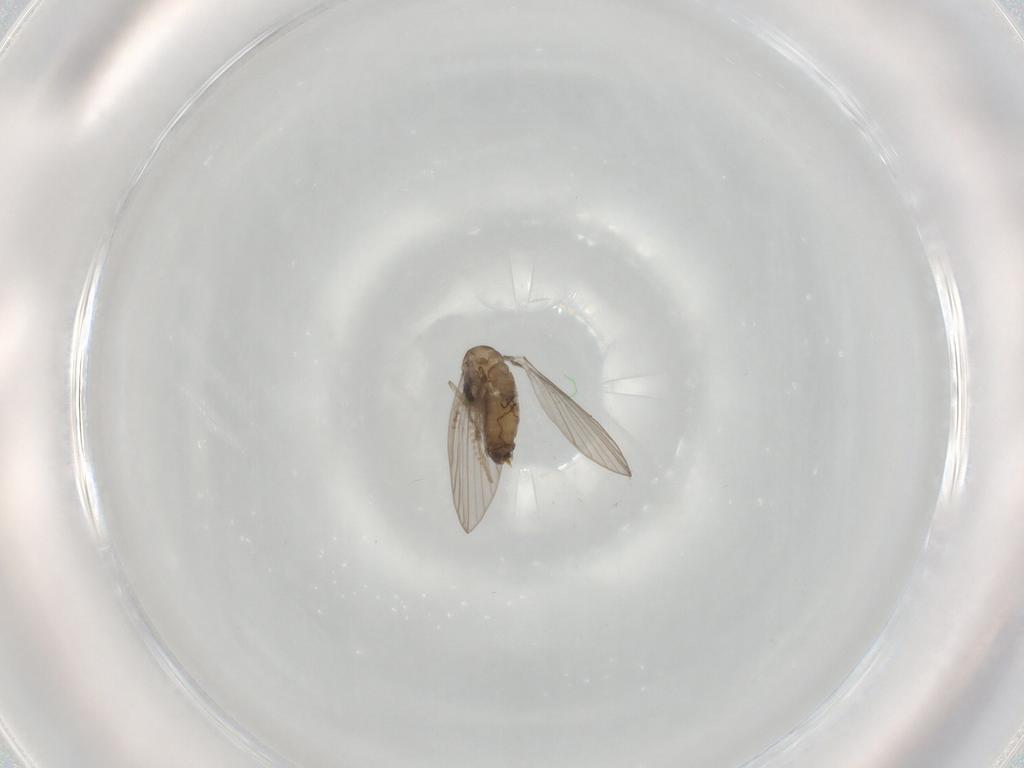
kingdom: Animalia
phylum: Arthropoda
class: Insecta
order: Diptera
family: Psychodidae
